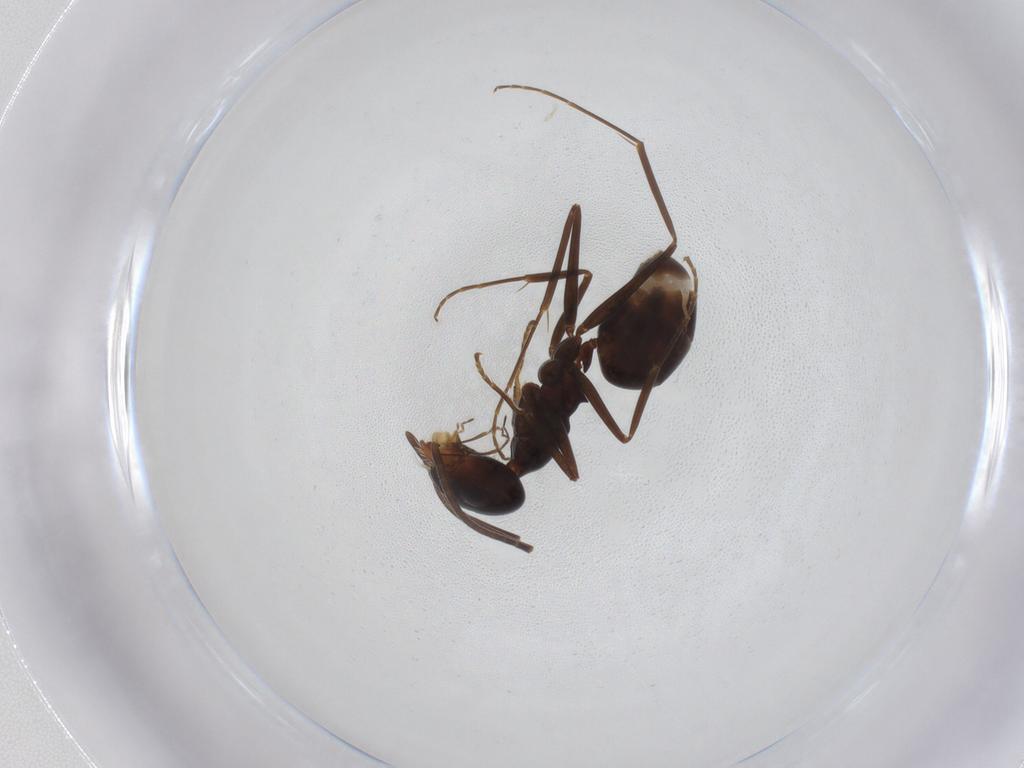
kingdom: Animalia
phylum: Arthropoda
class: Insecta
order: Hymenoptera
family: Formicidae
